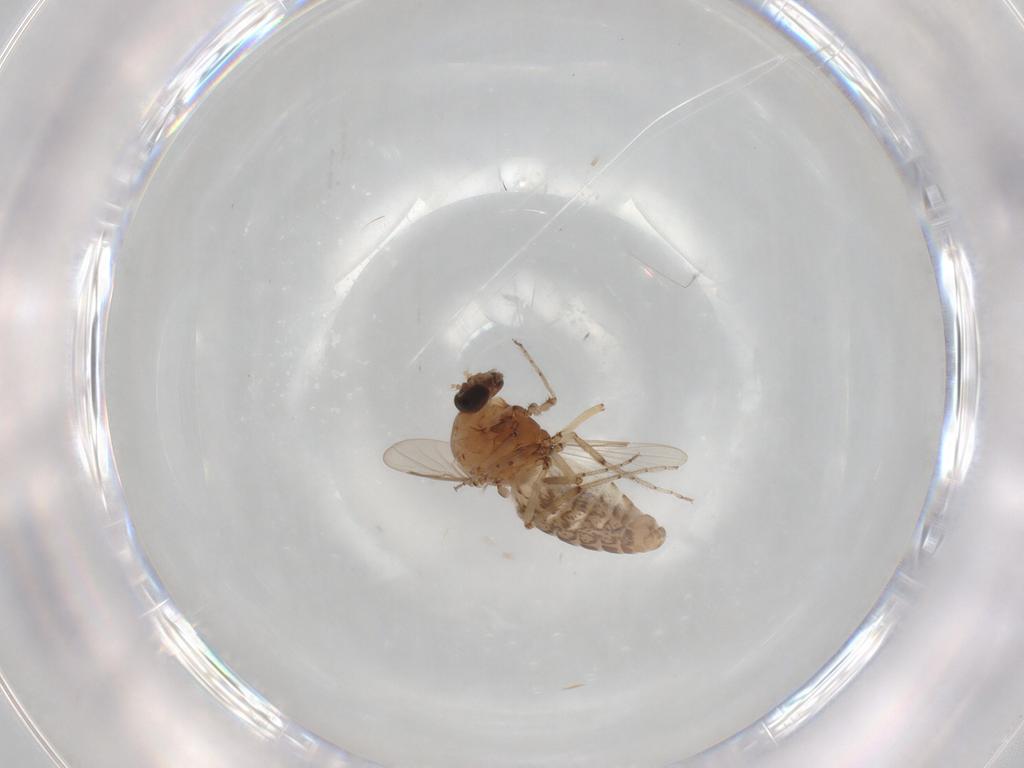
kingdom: Animalia
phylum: Arthropoda
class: Insecta
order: Diptera
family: Ceratopogonidae
